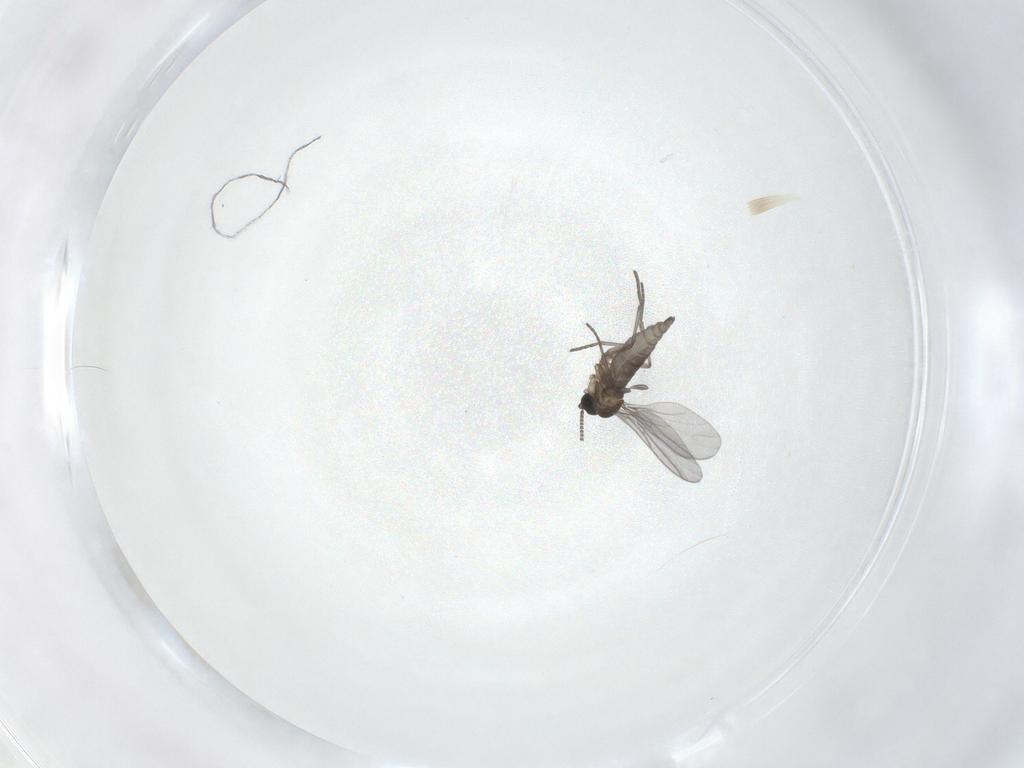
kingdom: Animalia
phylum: Arthropoda
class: Insecta
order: Diptera
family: Sciaridae
